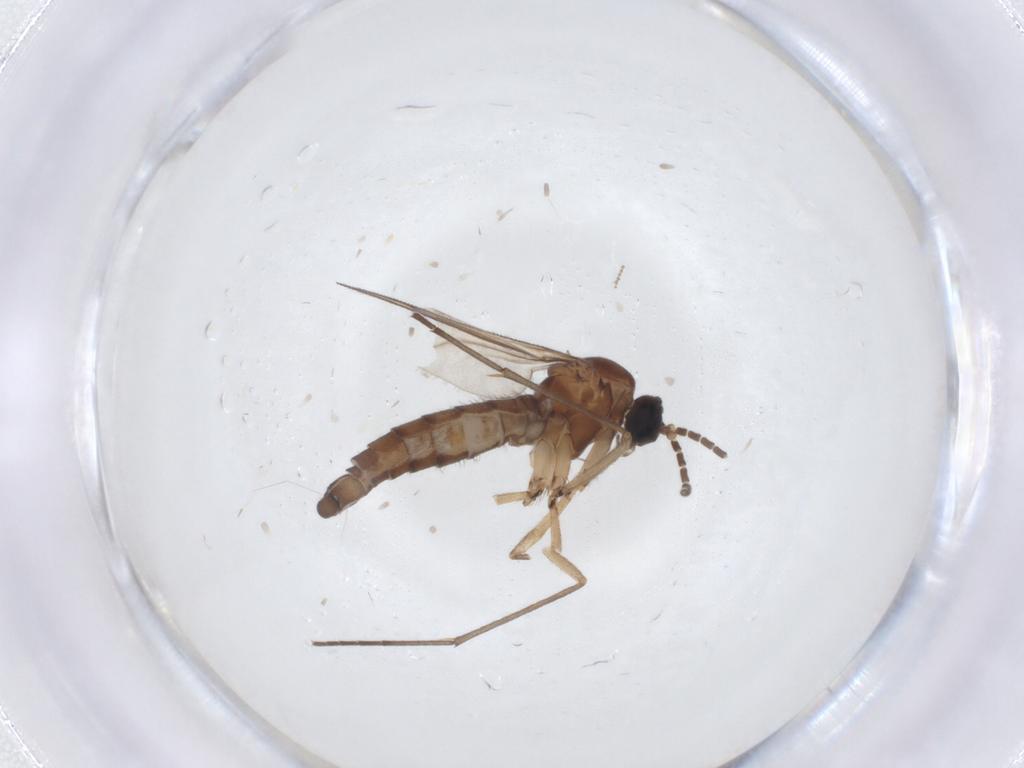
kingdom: Animalia
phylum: Arthropoda
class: Insecta
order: Diptera
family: Sciaridae
